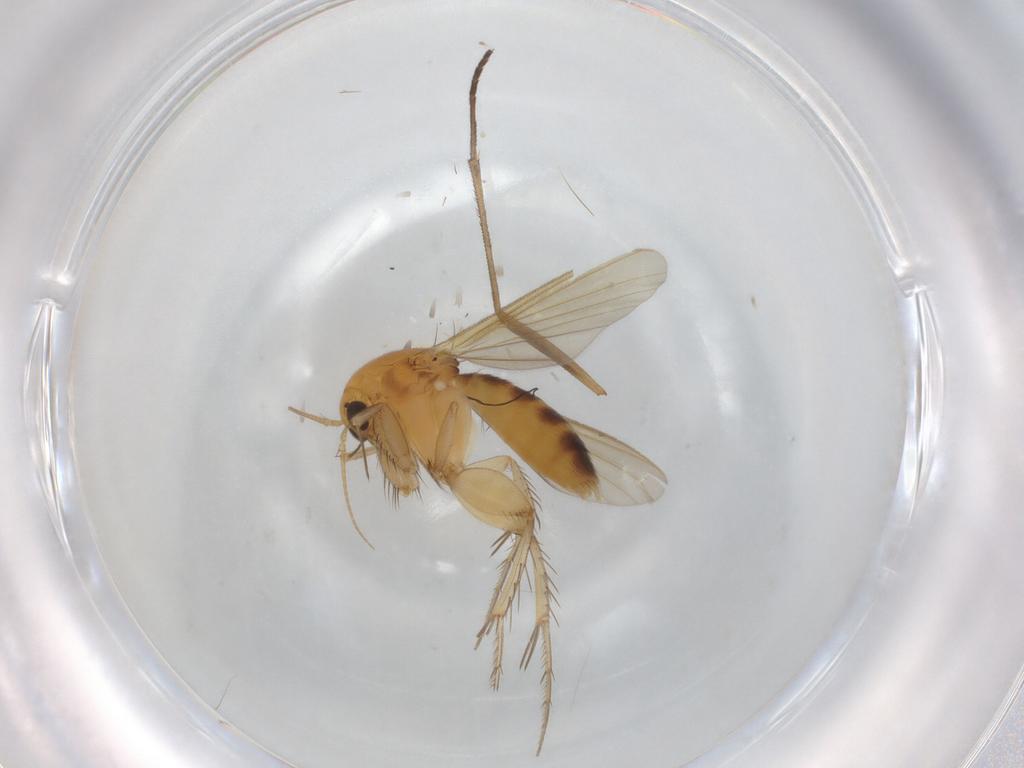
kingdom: Animalia
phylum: Arthropoda
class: Insecta
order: Diptera
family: Mycetophilidae
